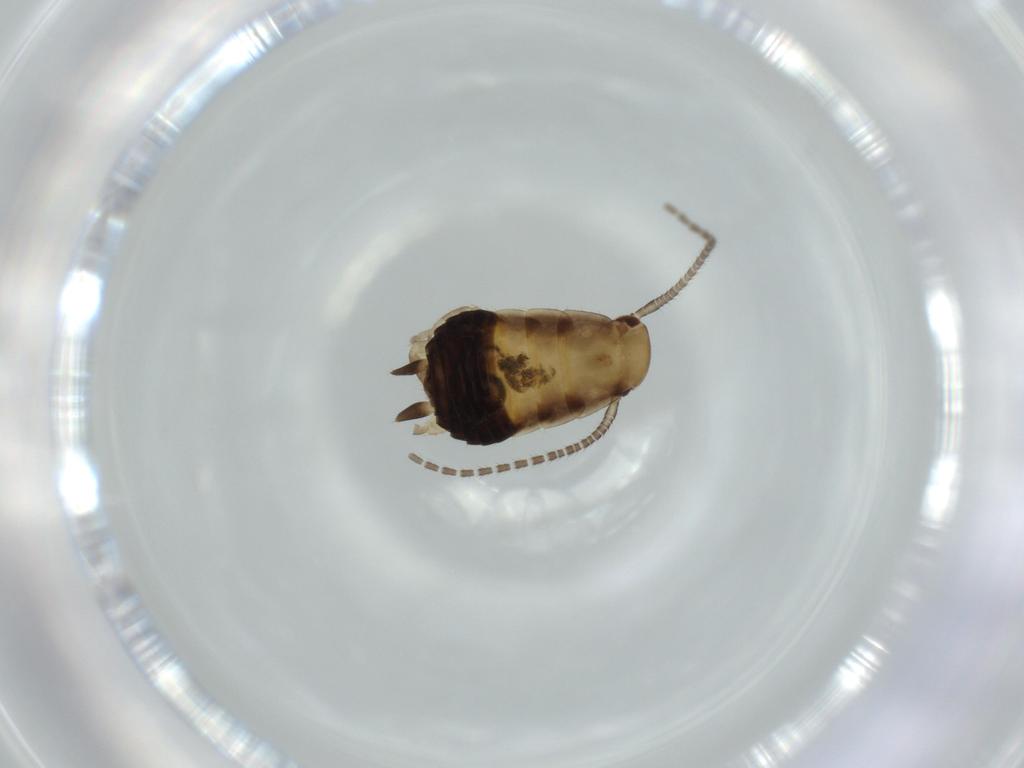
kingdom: Animalia
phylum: Arthropoda
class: Insecta
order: Blattodea
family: Ectobiidae
